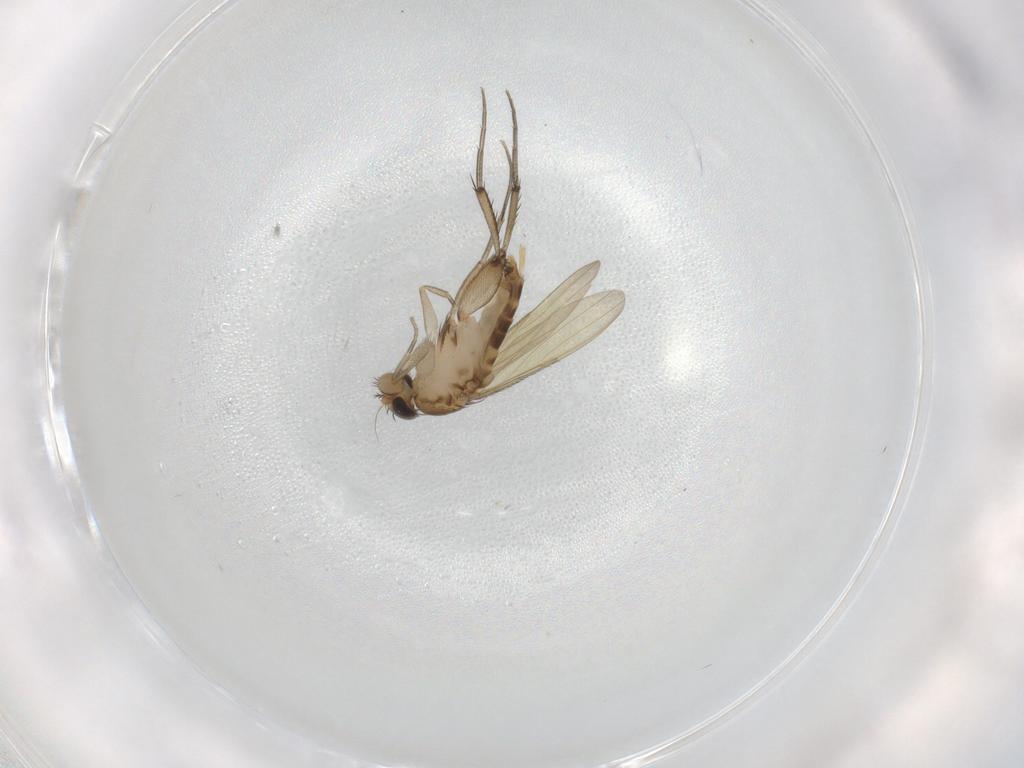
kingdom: Animalia
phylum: Arthropoda
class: Insecta
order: Diptera
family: Phoridae
